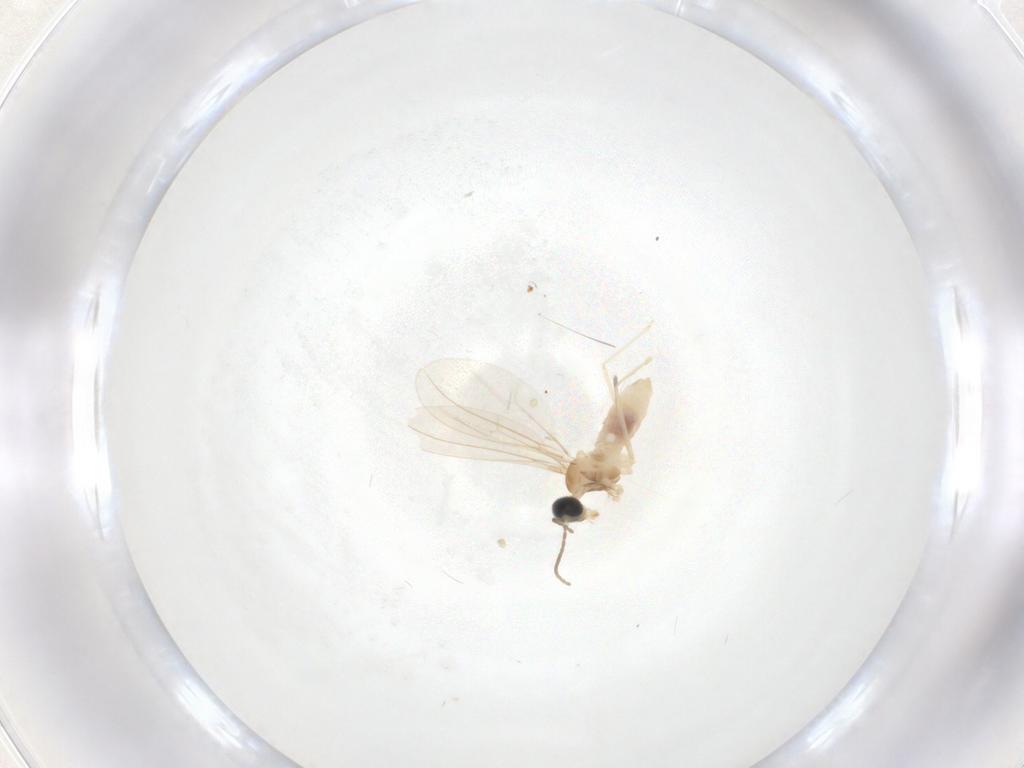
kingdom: Animalia
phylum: Arthropoda
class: Insecta
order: Diptera
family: Cecidomyiidae
